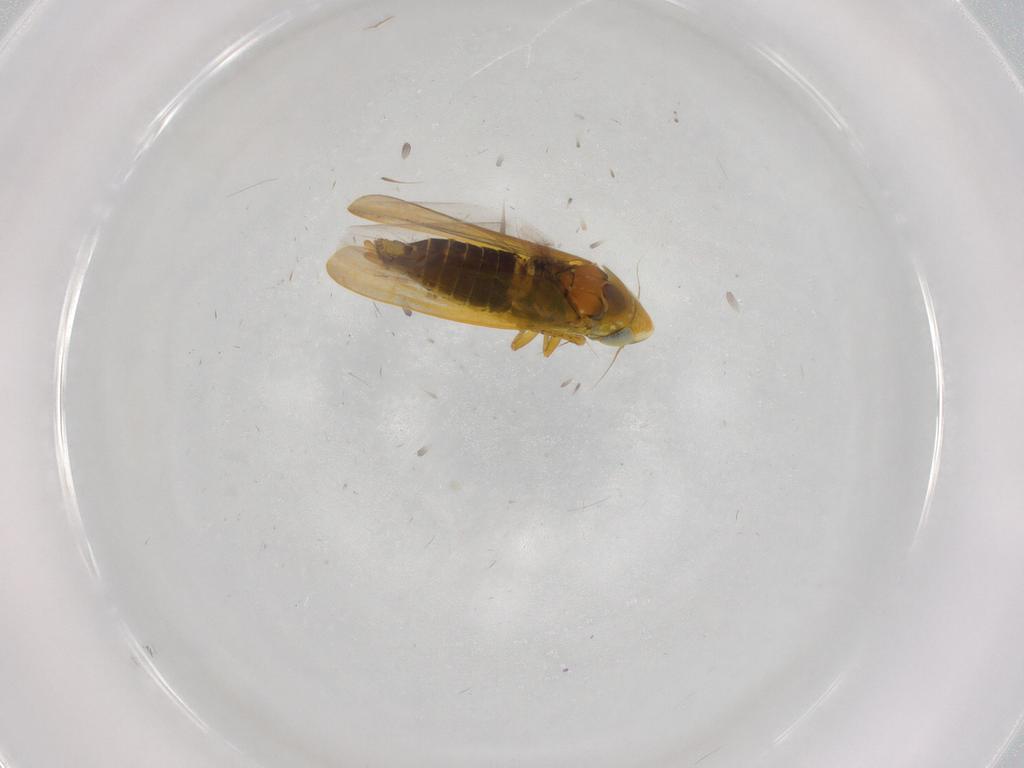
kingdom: Animalia
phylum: Arthropoda
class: Insecta
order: Hemiptera
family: Cicadellidae
